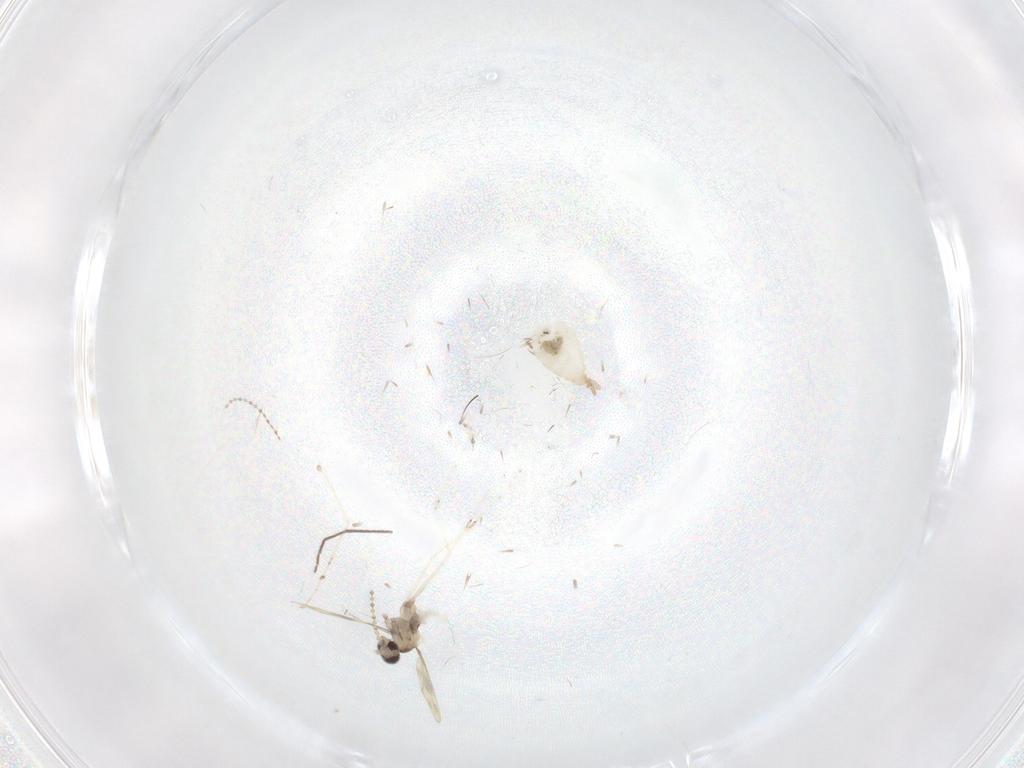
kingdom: Animalia
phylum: Arthropoda
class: Insecta
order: Diptera
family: Cecidomyiidae
